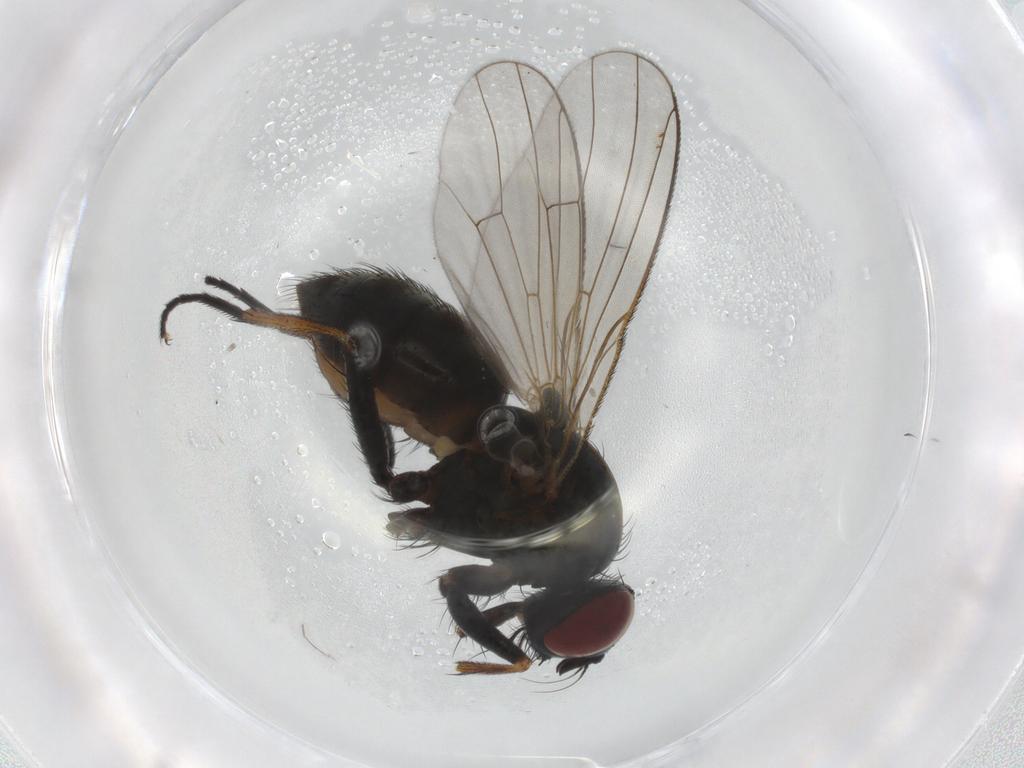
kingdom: Animalia
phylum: Arthropoda
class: Insecta
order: Diptera
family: Muscidae
